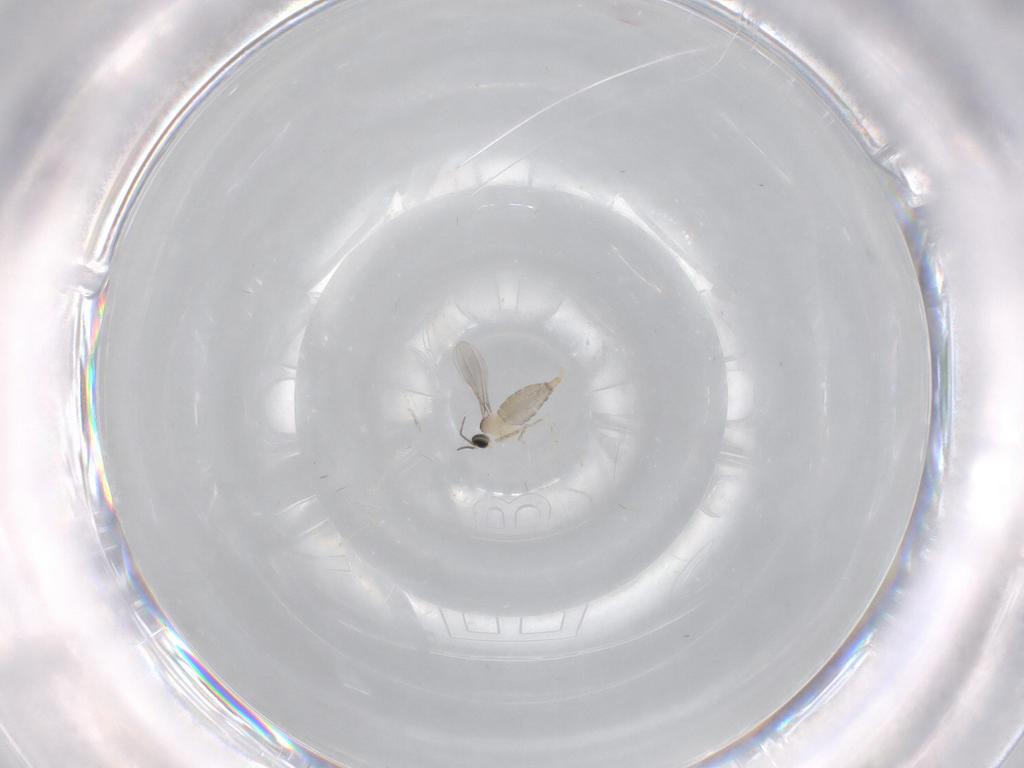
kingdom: Animalia
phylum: Arthropoda
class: Insecta
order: Diptera
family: Cecidomyiidae
